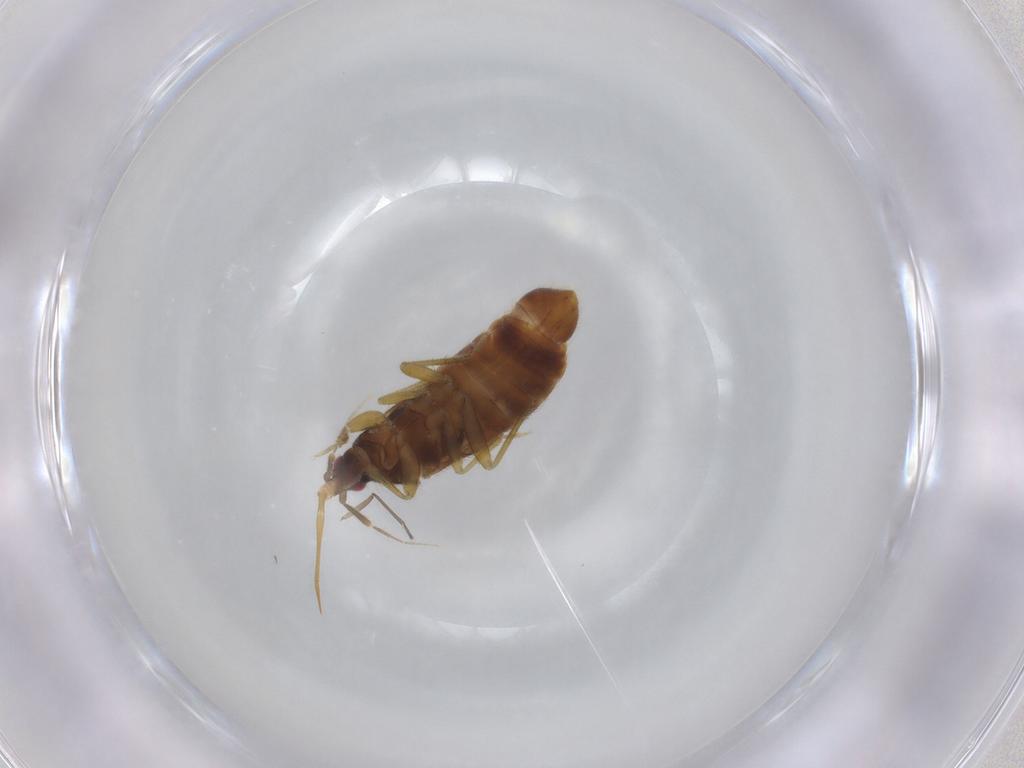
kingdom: Animalia
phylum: Arthropoda
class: Insecta
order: Hemiptera
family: Lasiochilidae
